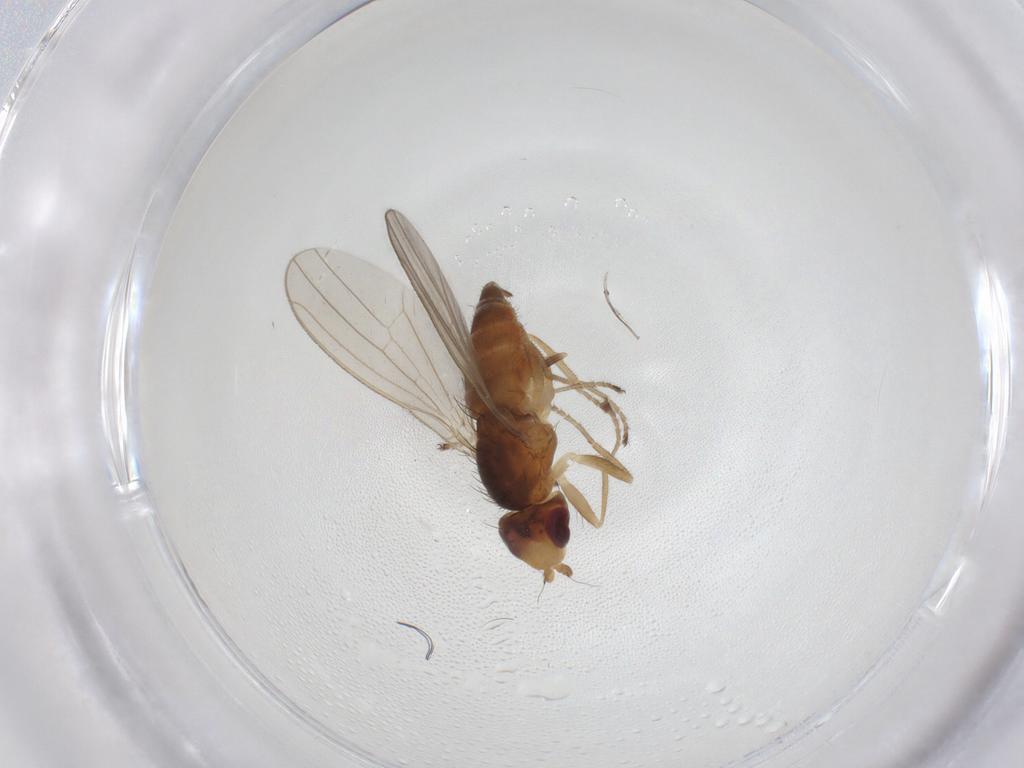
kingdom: Animalia
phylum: Arthropoda
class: Insecta
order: Diptera
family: Canacidae
